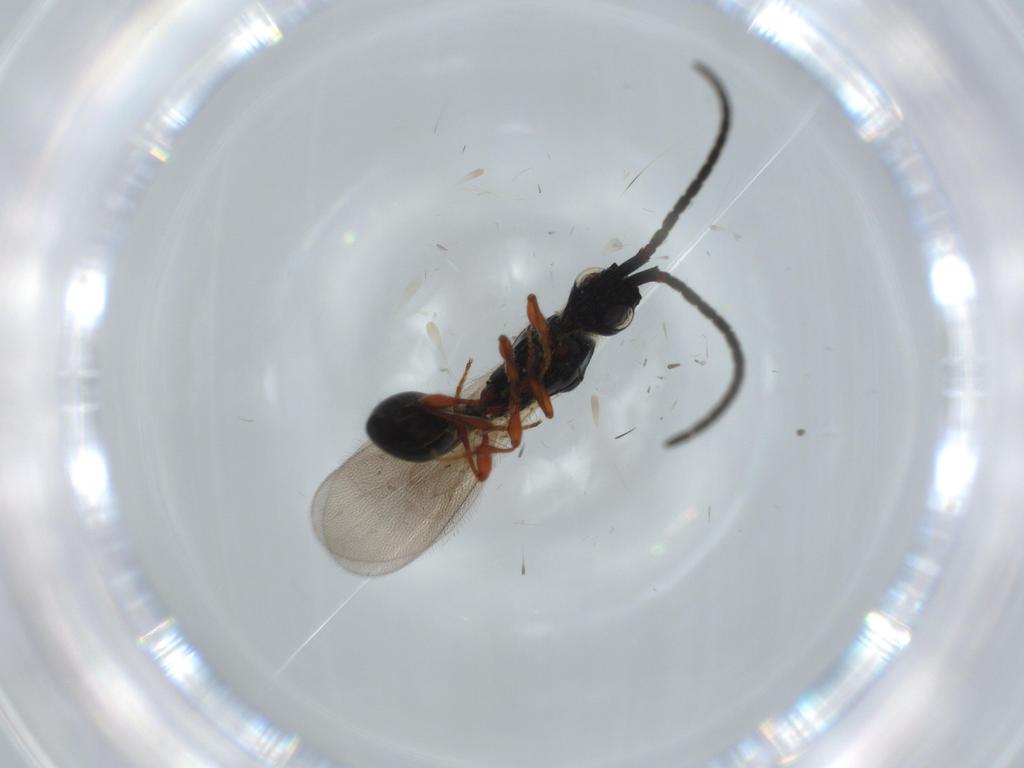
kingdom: Animalia
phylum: Arthropoda
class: Insecta
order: Hymenoptera
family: Diapriidae
